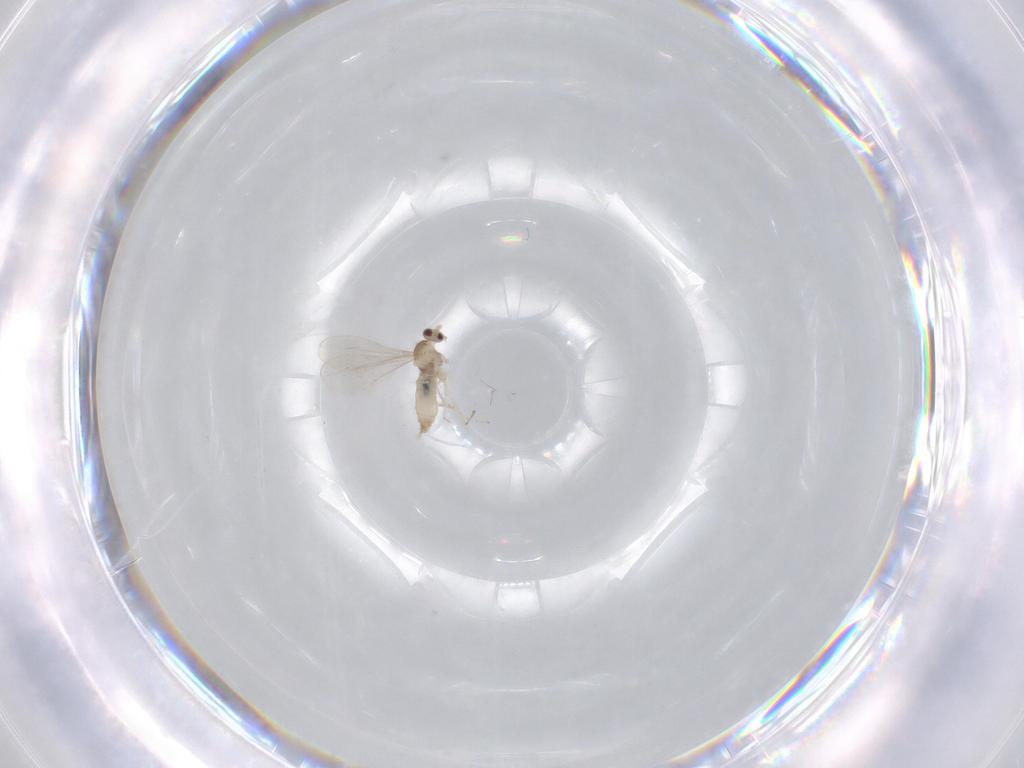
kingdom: Animalia
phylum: Arthropoda
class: Insecta
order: Diptera
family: Cecidomyiidae
